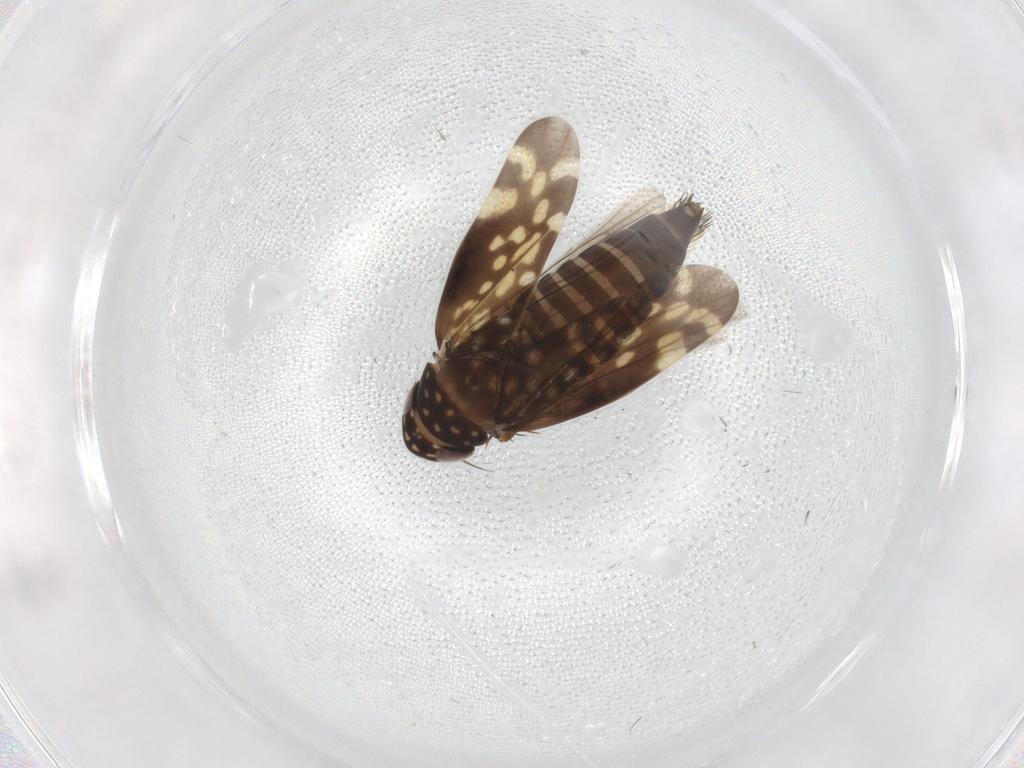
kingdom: Animalia
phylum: Arthropoda
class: Insecta
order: Hemiptera
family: Cicadellidae
